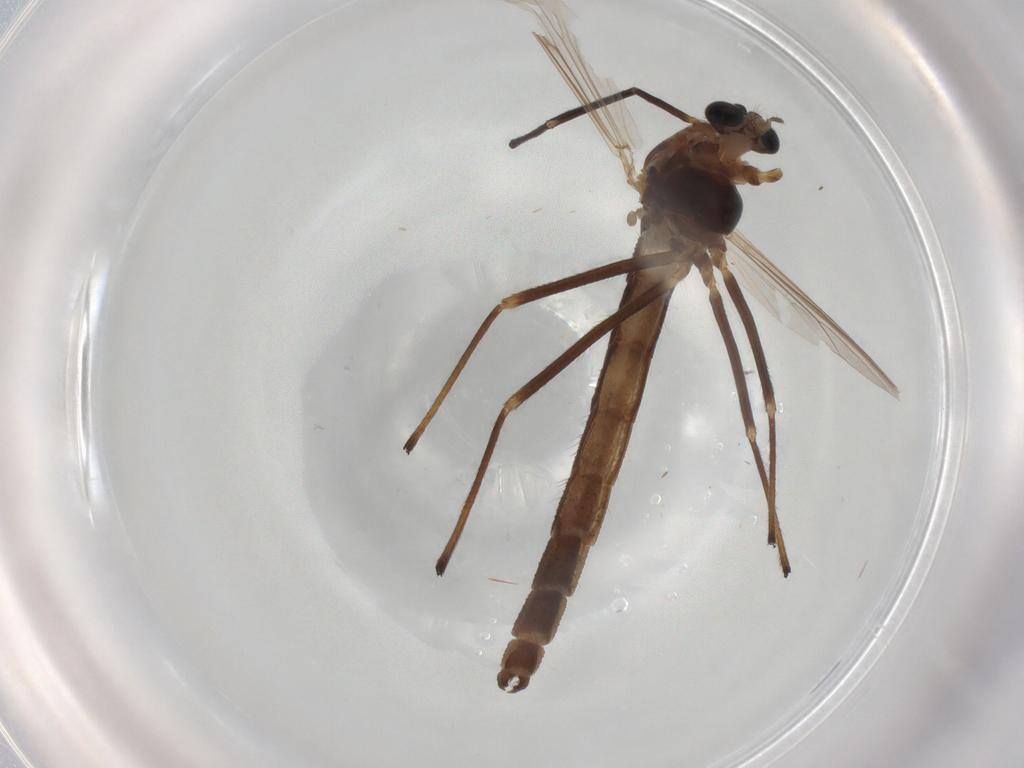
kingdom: Animalia
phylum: Arthropoda
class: Insecta
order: Diptera
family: Chironomidae
